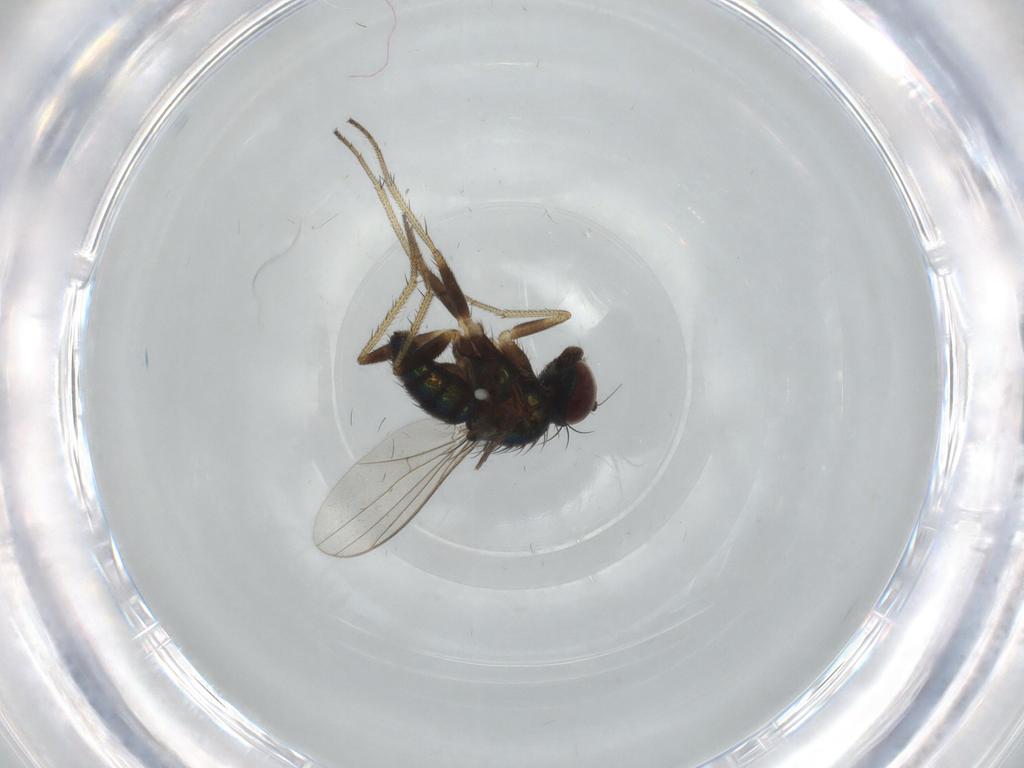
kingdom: Animalia
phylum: Arthropoda
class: Insecta
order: Diptera
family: Dolichopodidae
